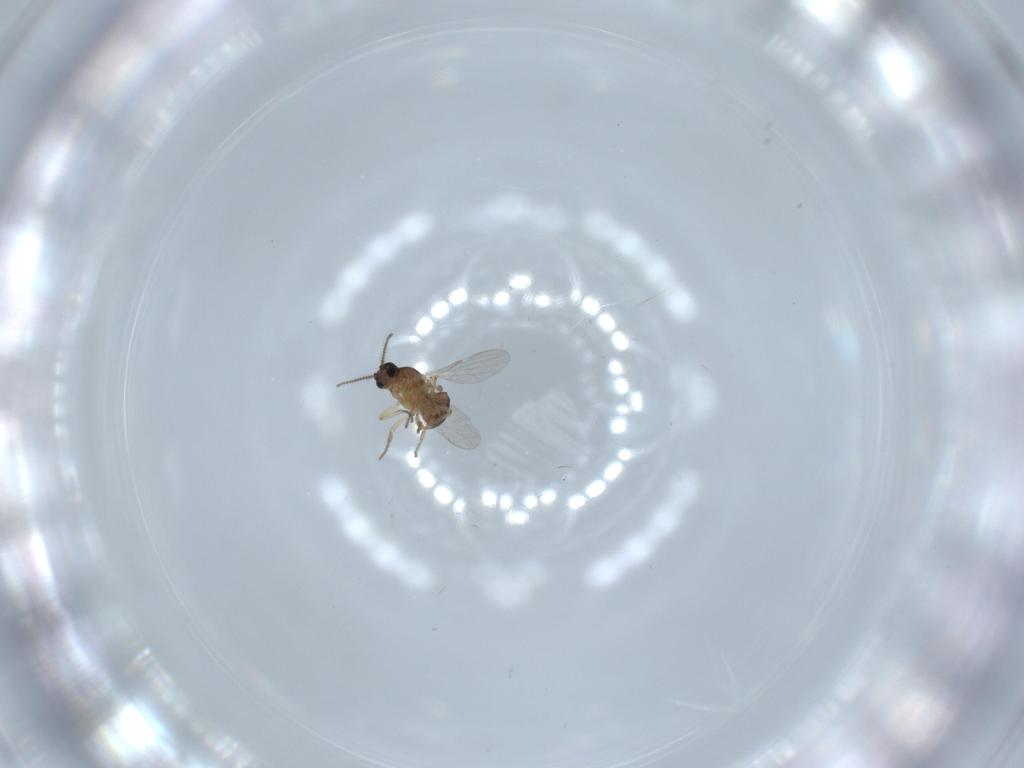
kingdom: Animalia
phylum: Arthropoda
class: Insecta
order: Diptera
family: Ceratopogonidae
